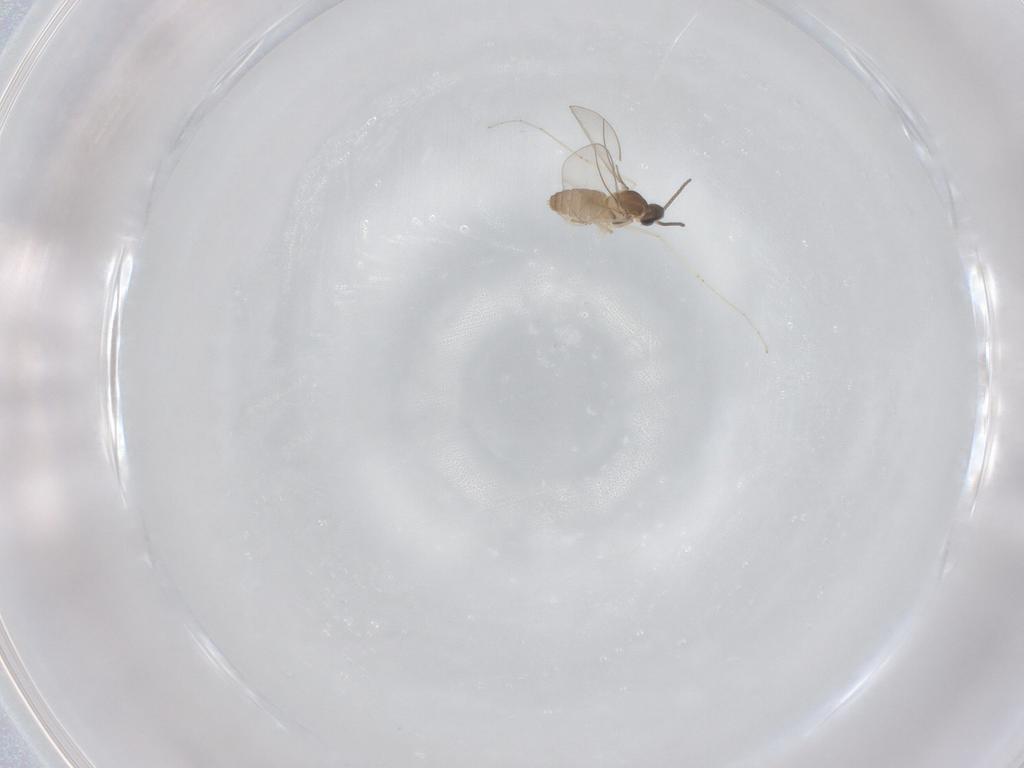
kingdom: Animalia
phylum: Arthropoda
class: Insecta
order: Diptera
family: Cecidomyiidae
